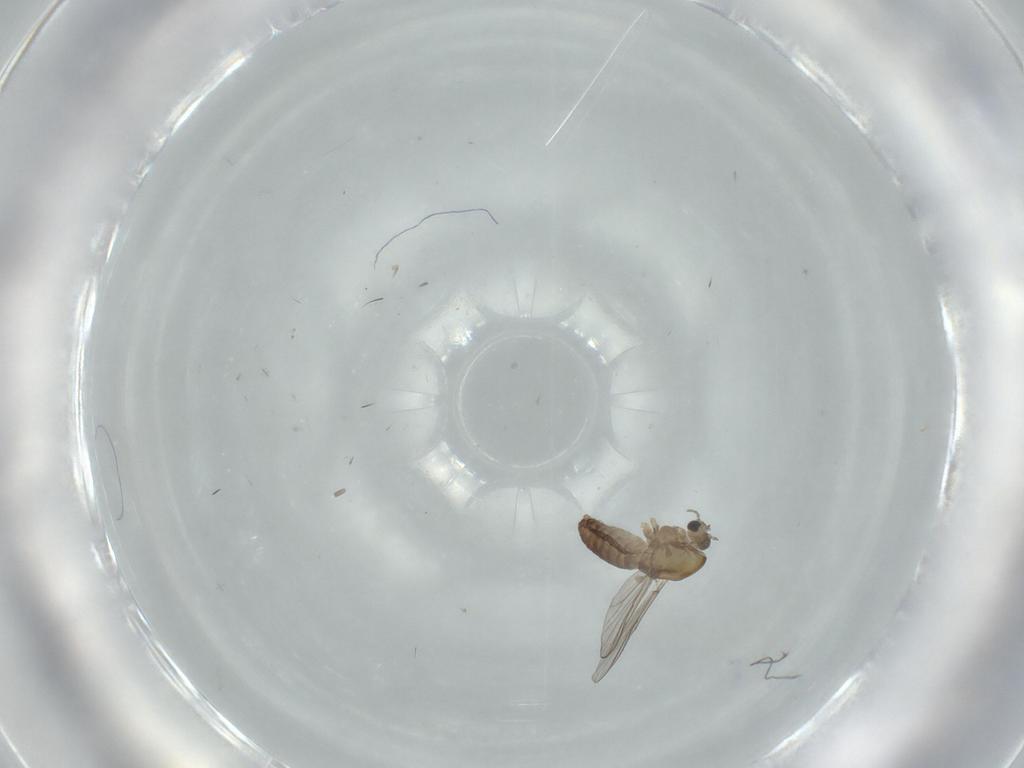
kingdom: Animalia
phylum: Arthropoda
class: Insecta
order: Diptera
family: Chironomidae
